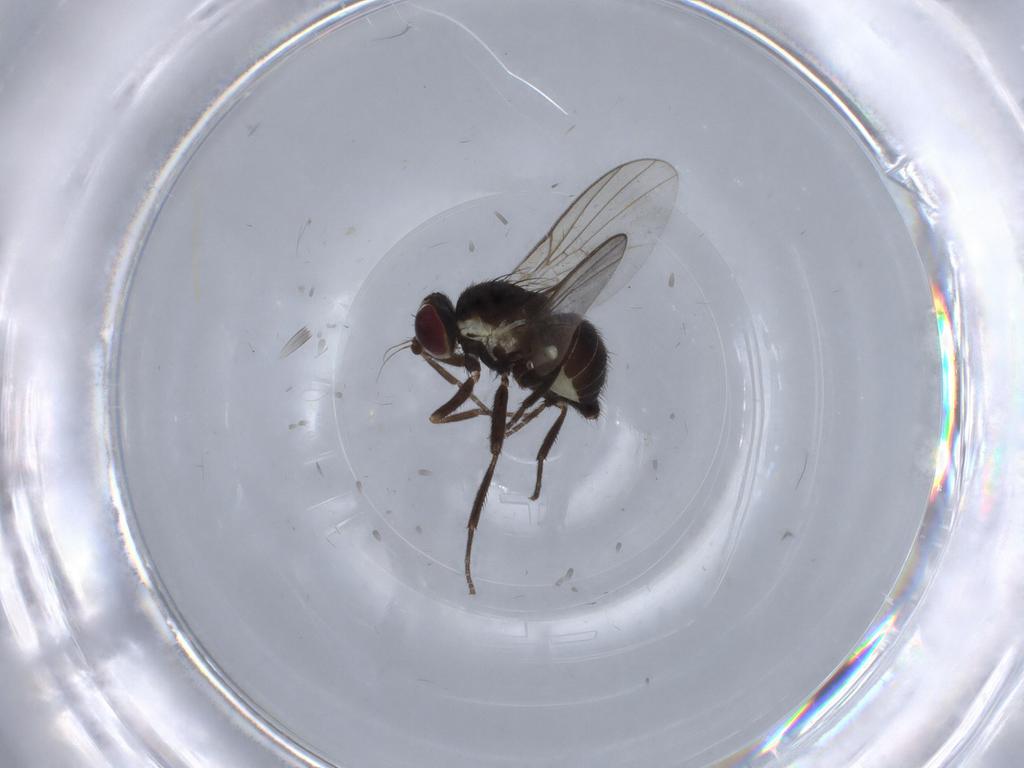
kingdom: Animalia
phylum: Arthropoda
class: Insecta
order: Diptera
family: Agromyzidae
